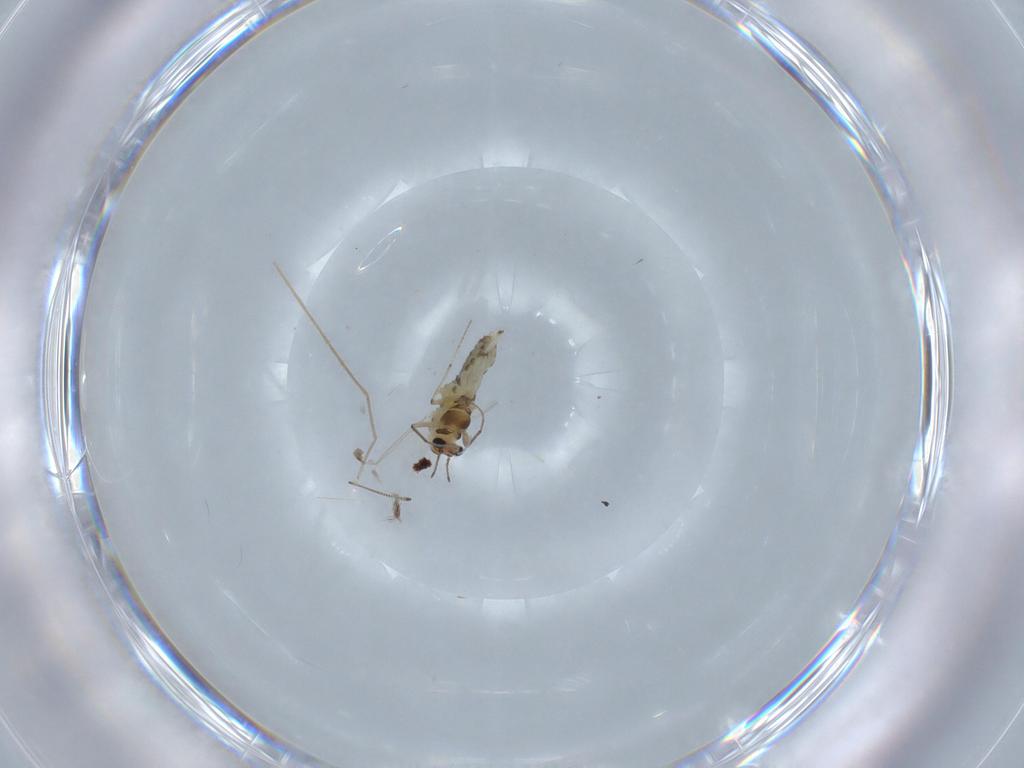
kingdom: Animalia
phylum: Arthropoda
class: Insecta
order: Diptera
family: Chironomidae
